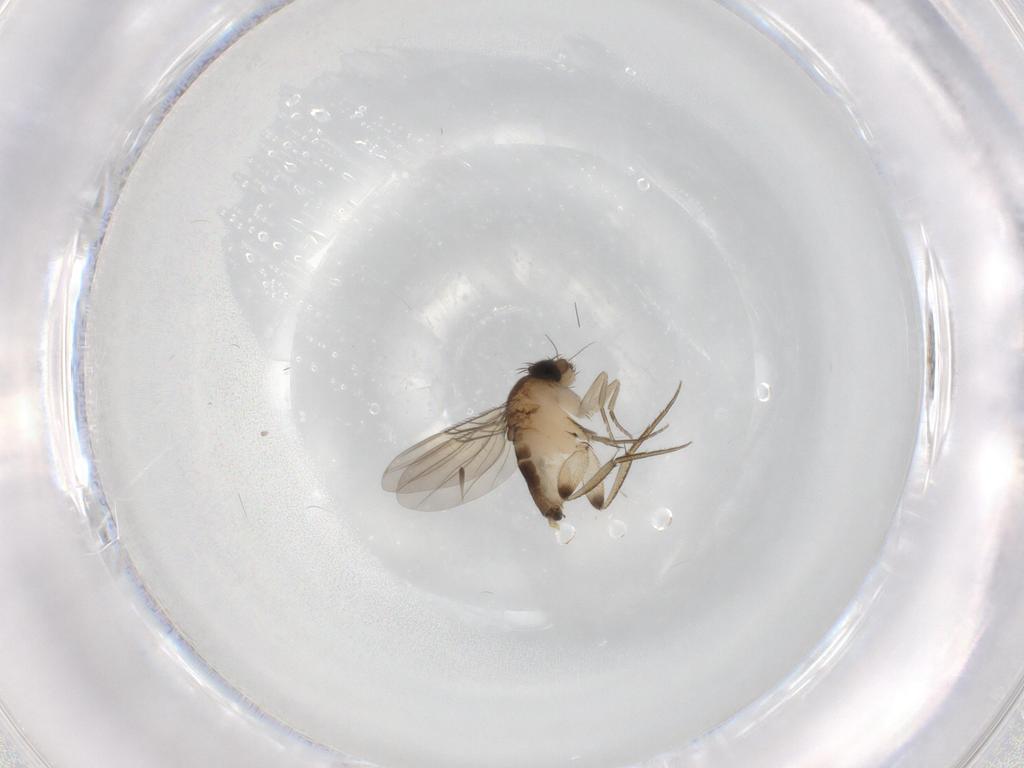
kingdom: Animalia
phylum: Arthropoda
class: Insecta
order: Diptera
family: Phoridae
